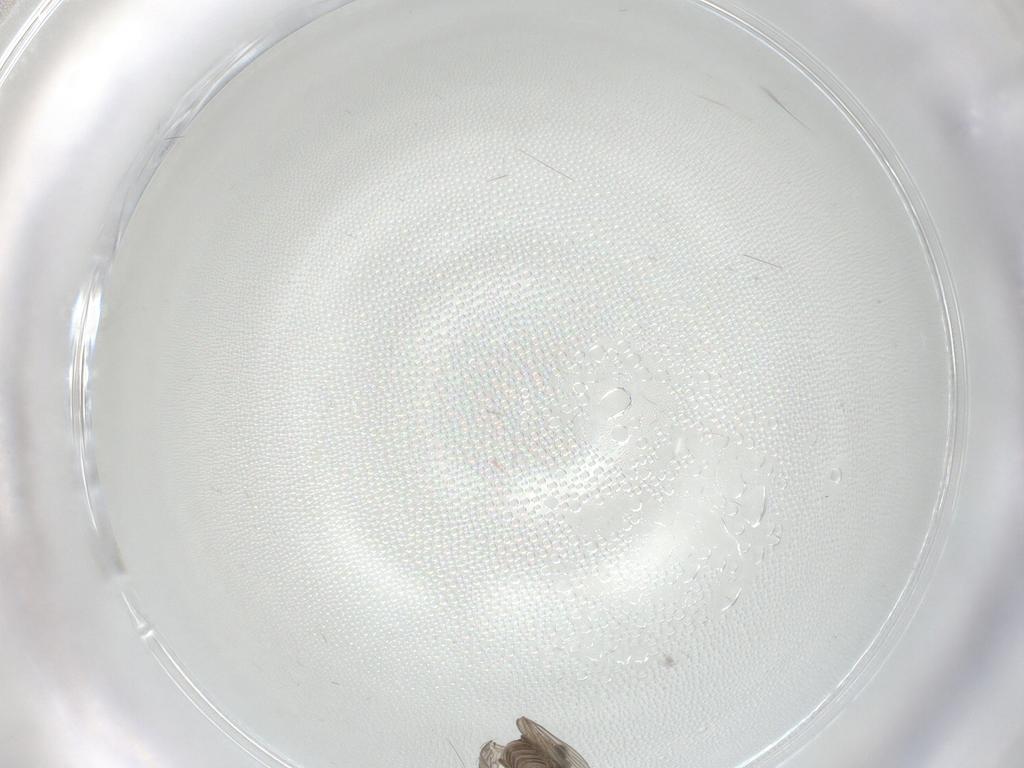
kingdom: Animalia
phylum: Arthropoda
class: Insecta
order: Diptera
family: Psychodidae
